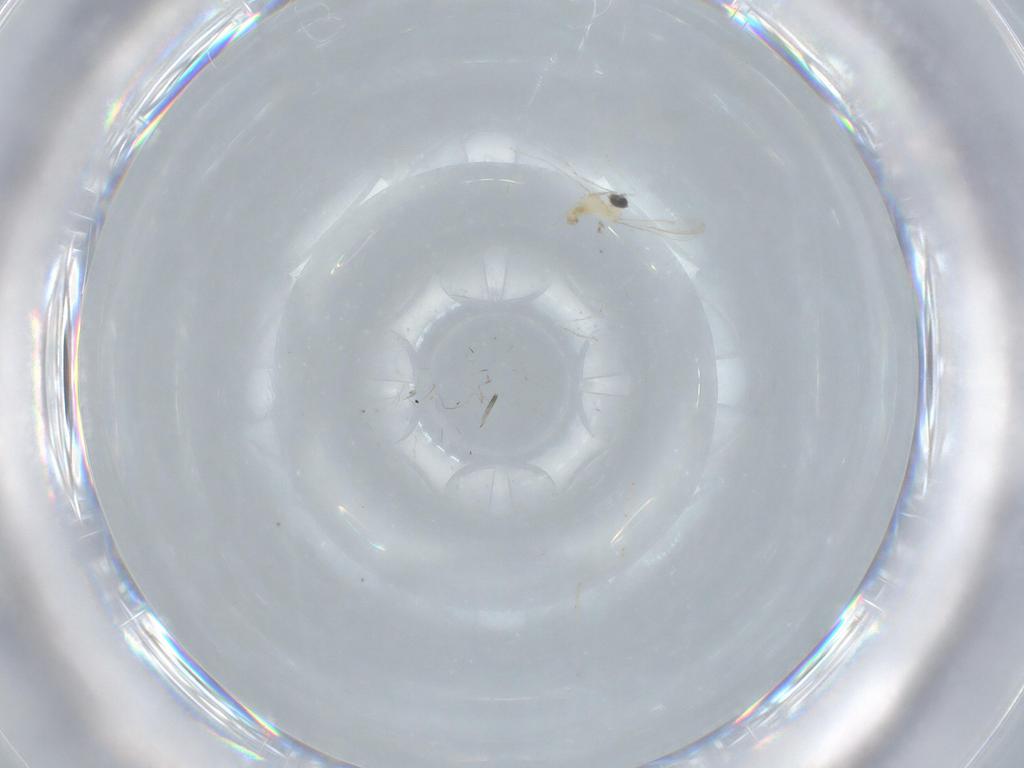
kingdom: Animalia
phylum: Arthropoda
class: Insecta
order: Diptera
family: Cecidomyiidae
